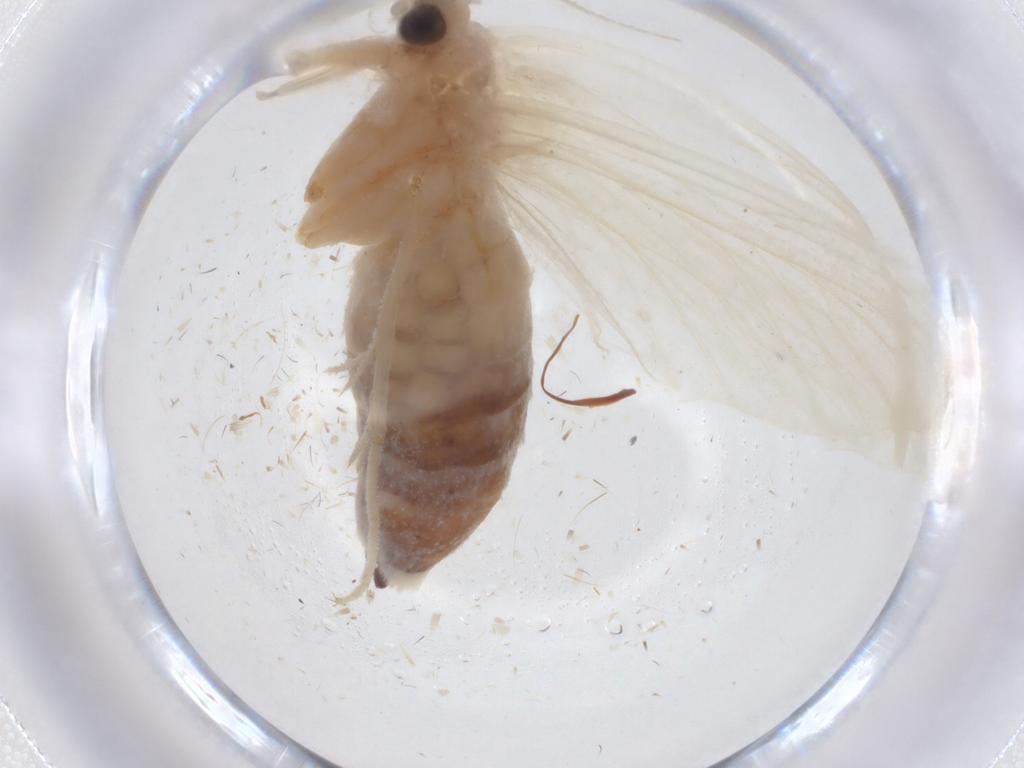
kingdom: Animalia
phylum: Arthropoda
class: Insecta
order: Lepidoptera
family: Crambidae
